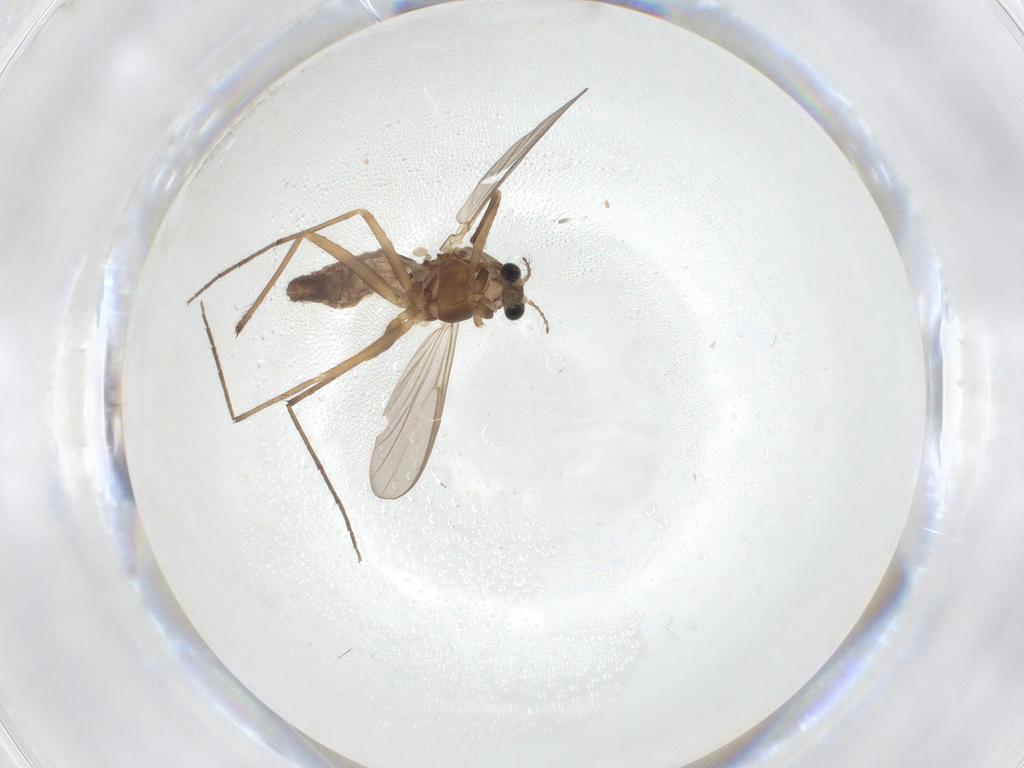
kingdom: Animalia
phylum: Arthropoda
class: Insecta
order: Diptera
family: Chironomidae
